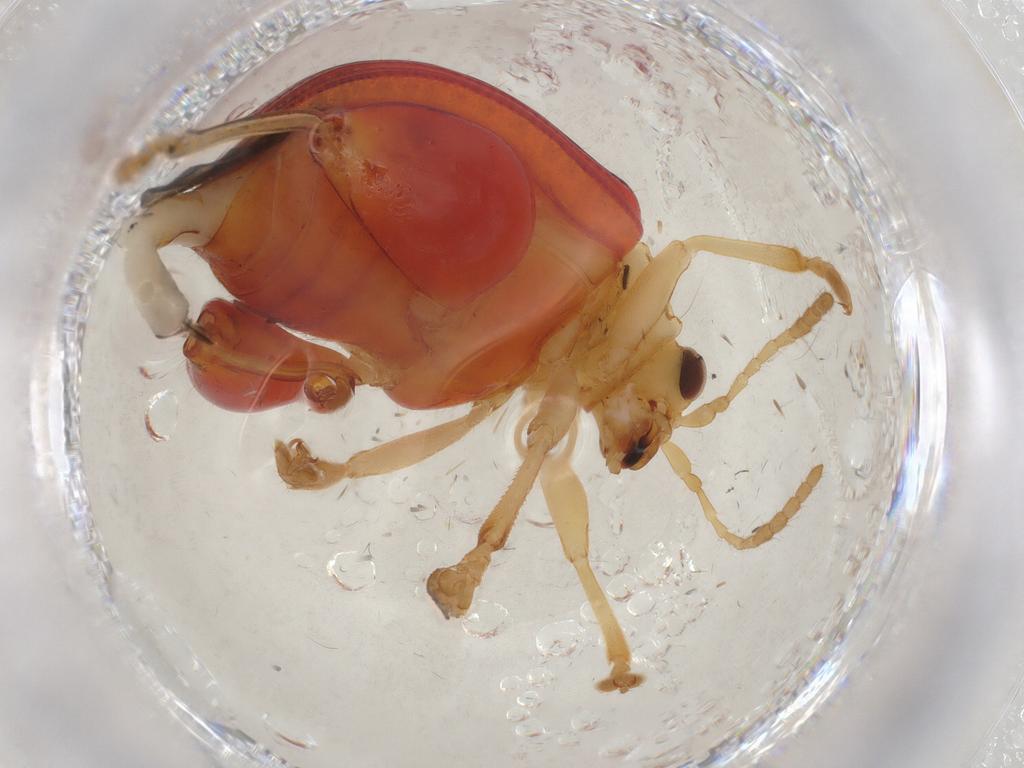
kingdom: Animalia
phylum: Arthropoda
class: Insecta
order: Coleoptera
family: Chrysomelidae
